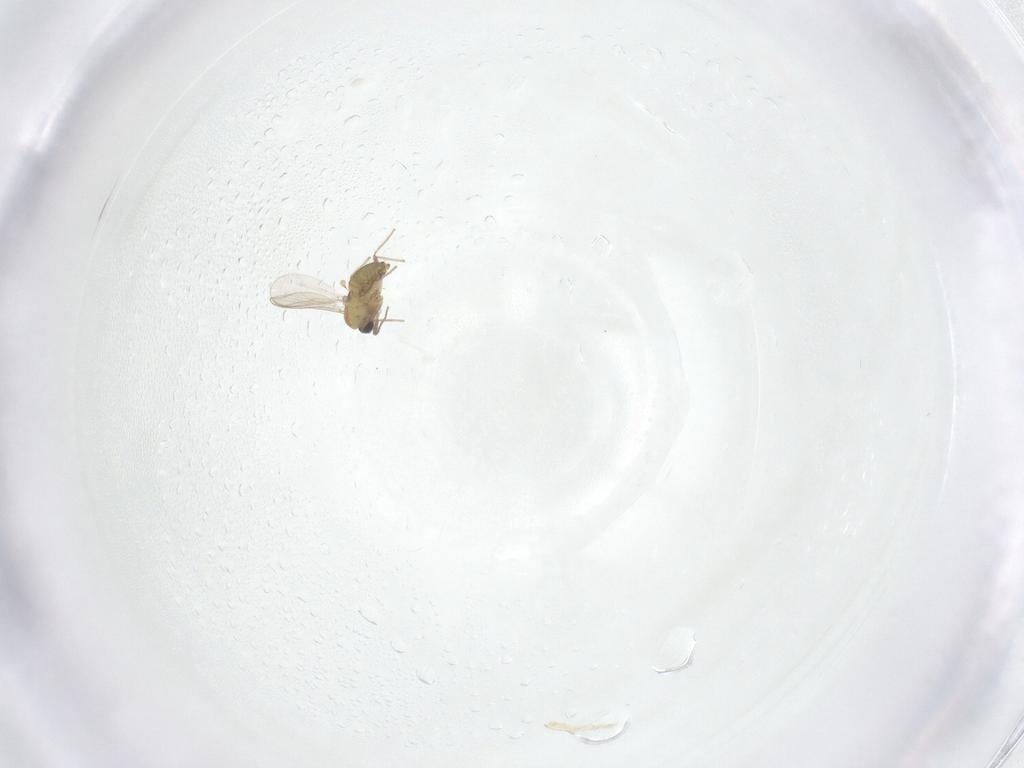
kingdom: Animalia
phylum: Arthropoda
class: Insecta
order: Diptera
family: Chironomidae
